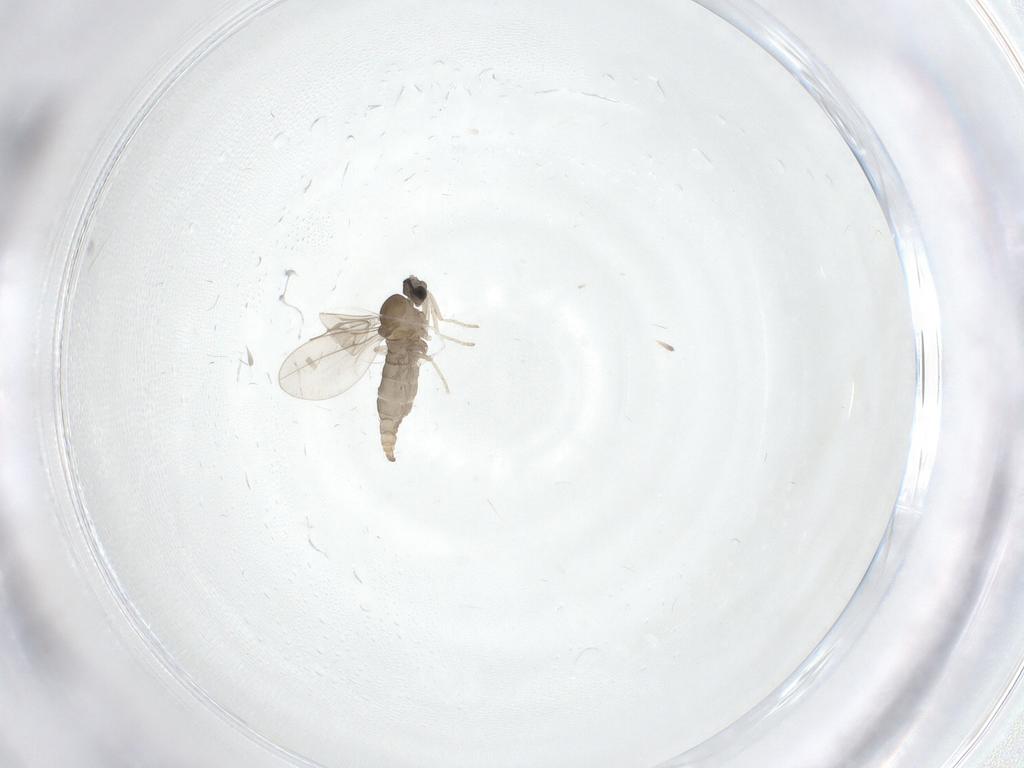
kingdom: Animalia
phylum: Arthropoda
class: Insecta
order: Diptera
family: Cecidomyiidae
